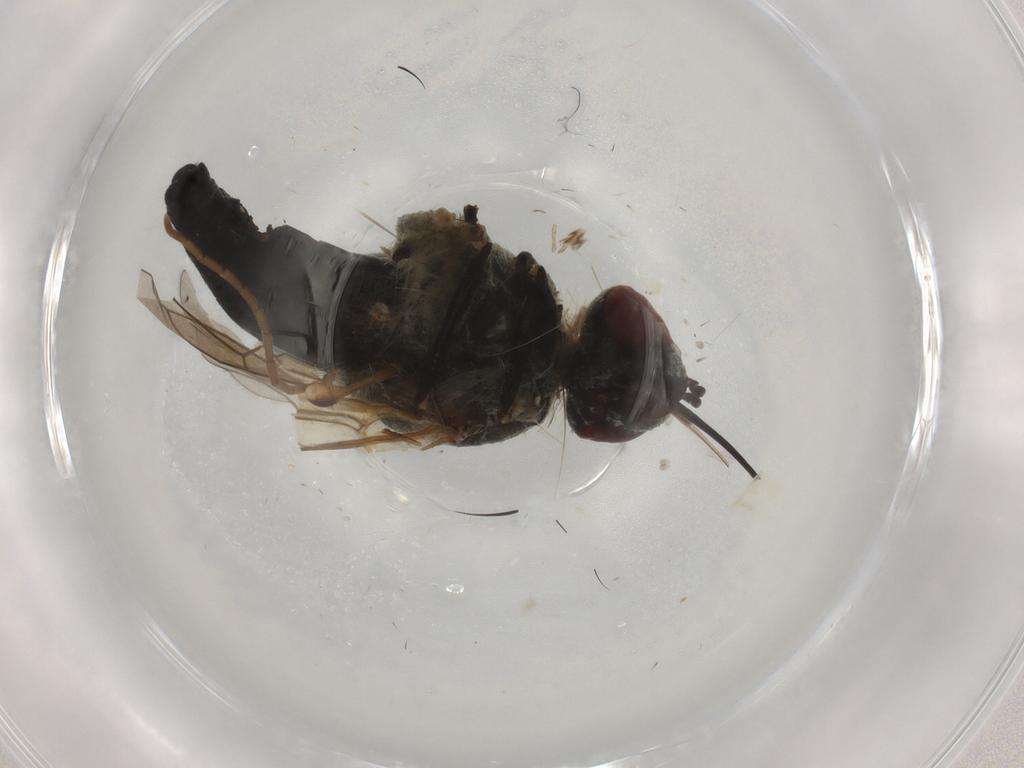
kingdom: Animalia
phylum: Arthropoda
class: Insecta
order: Diptera
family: Bombyliidae
